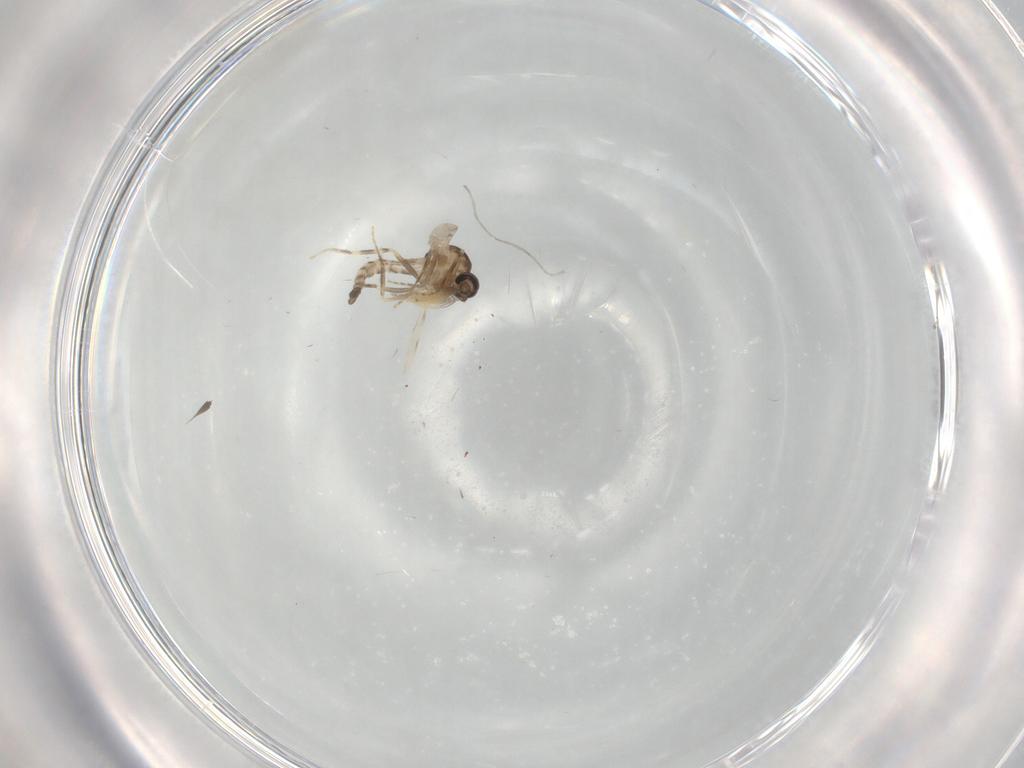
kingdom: Animalia
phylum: Arthropoda
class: Insecta
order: Diptera
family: Ceratopogonidae
